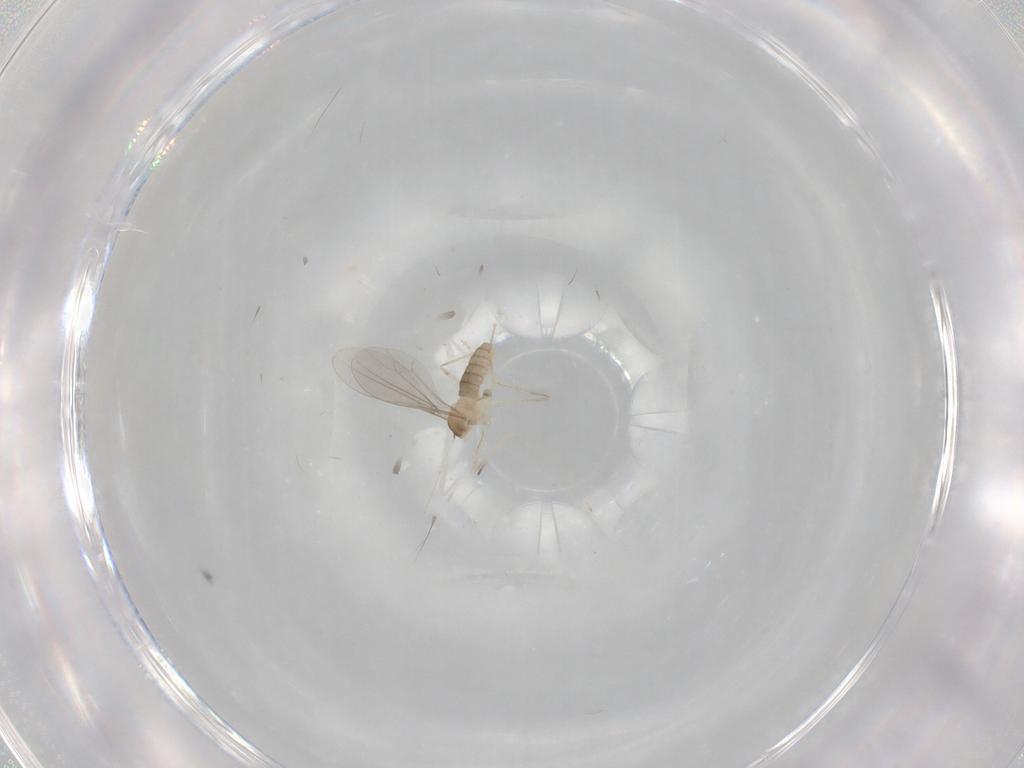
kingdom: Animalia
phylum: Arthropoda
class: Insecta
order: Diptera
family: Cecidomyiidae
